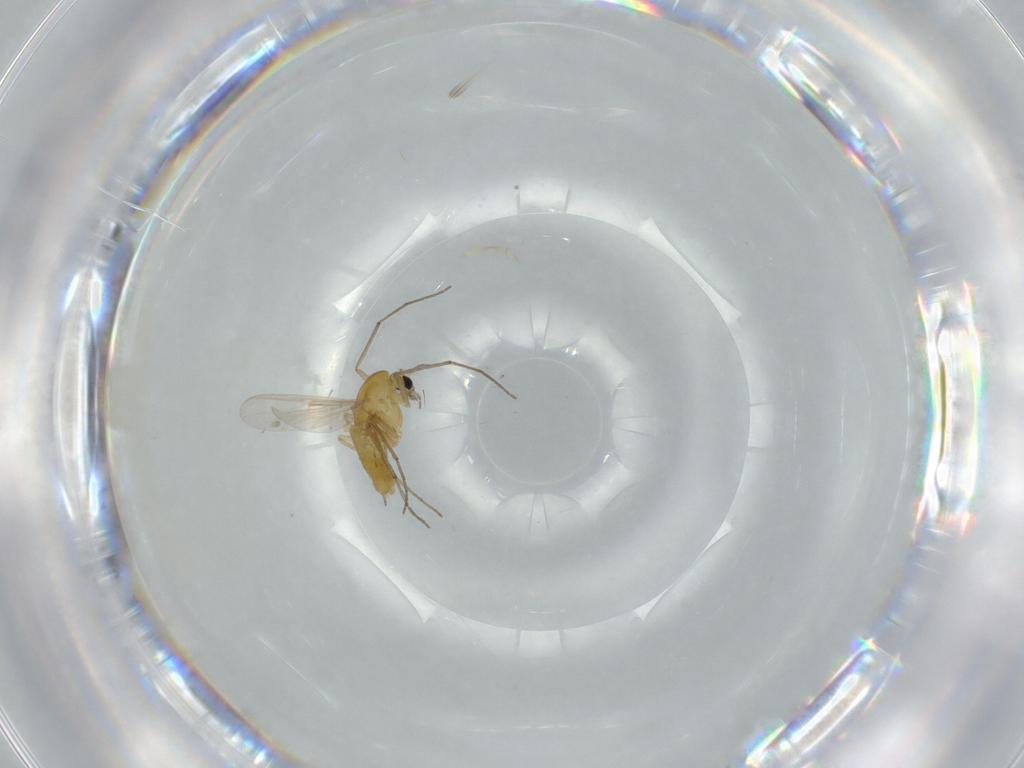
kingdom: Animalia
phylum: Arthropoda
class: Insecta
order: Diptera
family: Chironomidae
